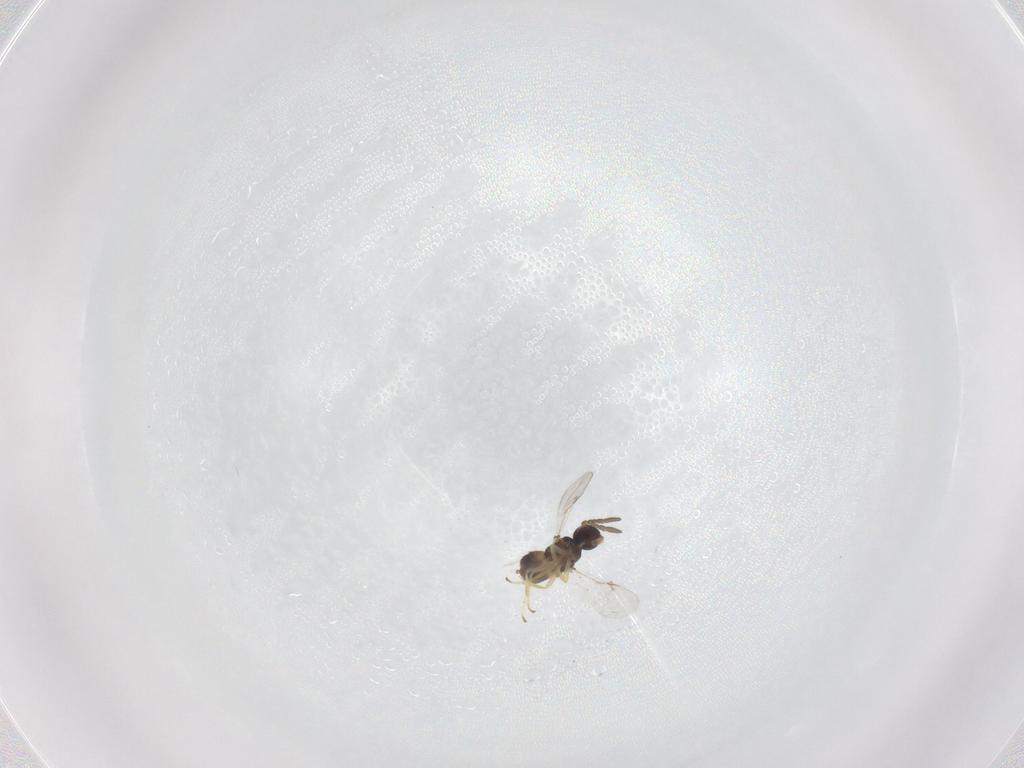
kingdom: Animalia
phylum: Arthropoda
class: Insecta
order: Hymenoptera
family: Encyrtidae
